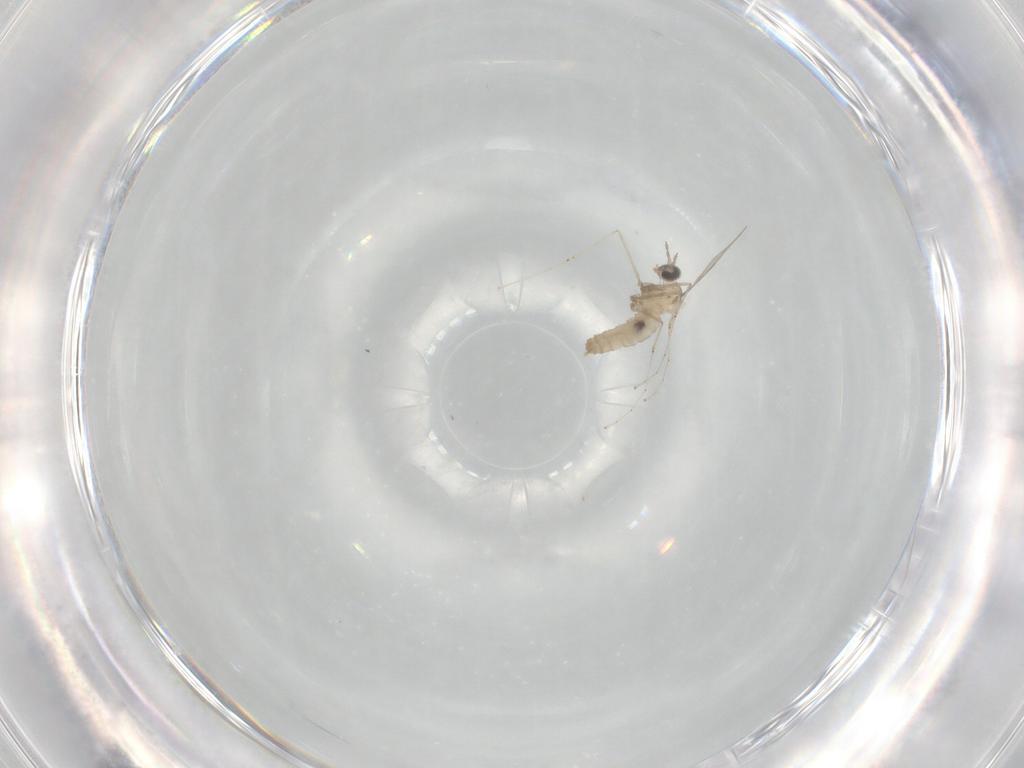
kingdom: Animalia
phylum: Arthropoda
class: Insecta
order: Diptera
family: Cecidomyiidae
